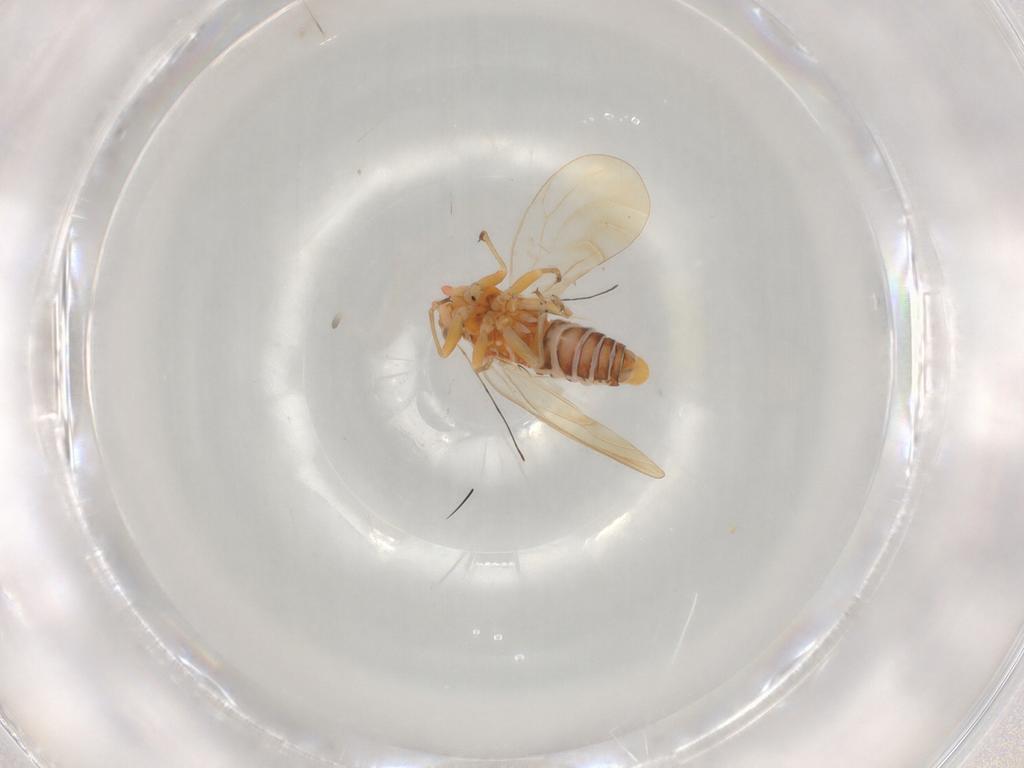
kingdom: Animalia
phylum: Arthropoda
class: Insecta
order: Hemiptera
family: Psyllidae
